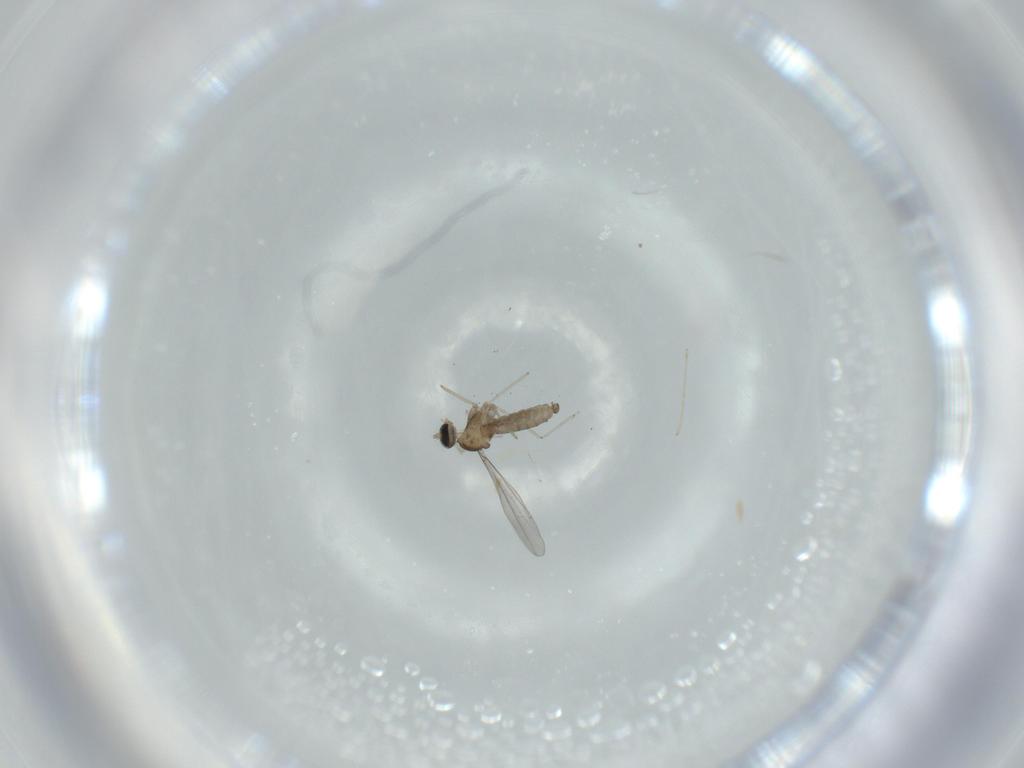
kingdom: Animalia
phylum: Arthropoda
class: Insecta
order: Diptera
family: Cecidomyiidae
